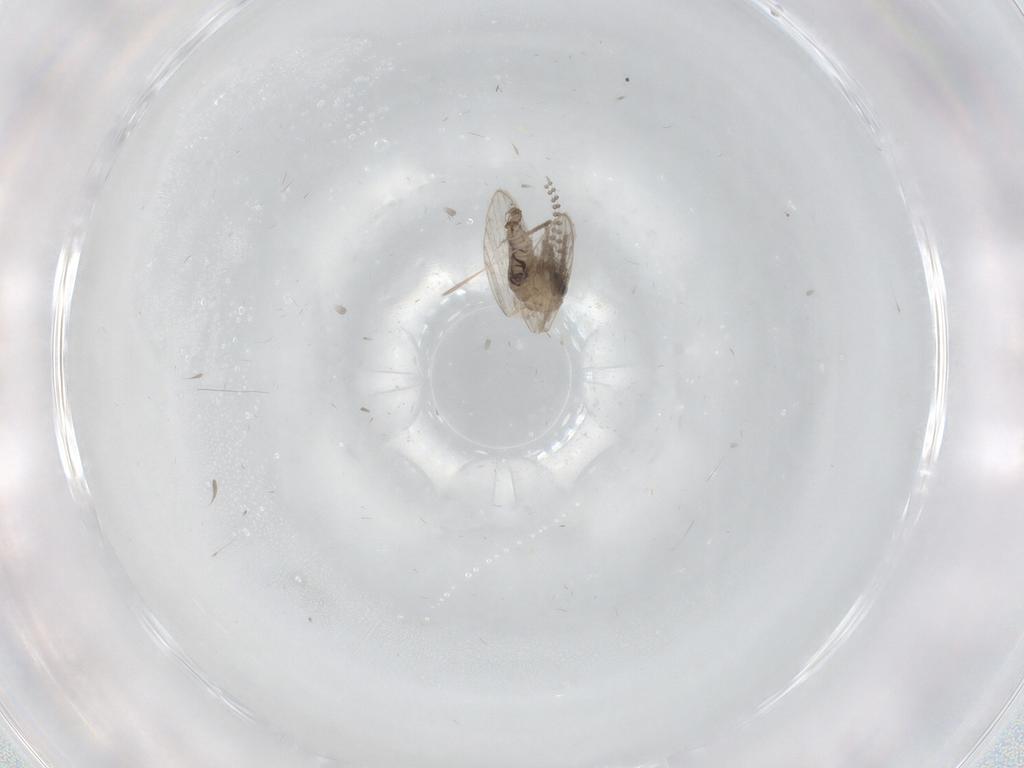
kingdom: Animalia
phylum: Arthropoda
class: Insecta
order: Diptera
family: Psychodidae
